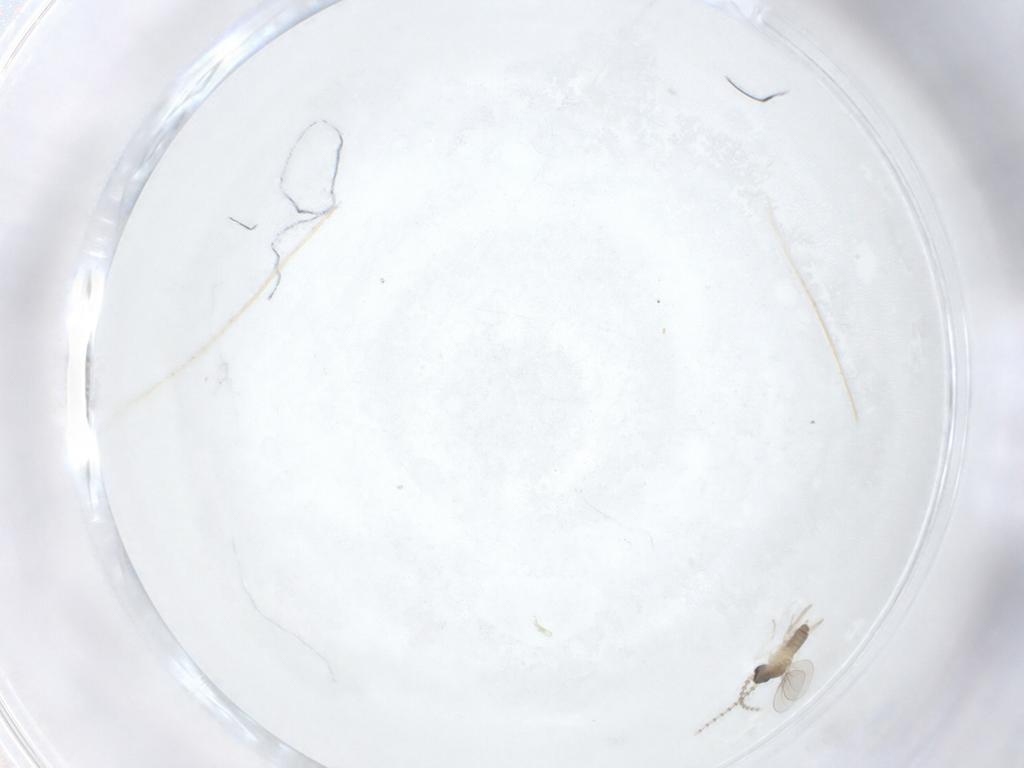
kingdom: Animalia
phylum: Arthropoda
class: Insecta
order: Diptera
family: Cecidomyiidae
